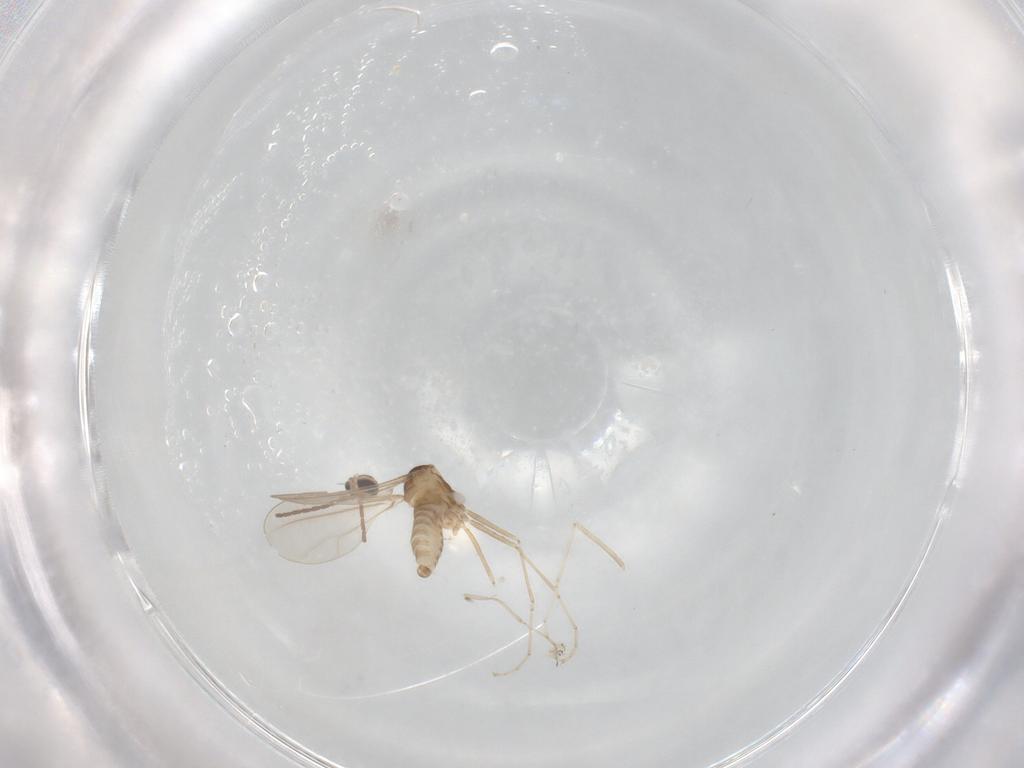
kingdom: Animalia
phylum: Arthropoda
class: Insecta
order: Diptera
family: Cecidomyiidae
